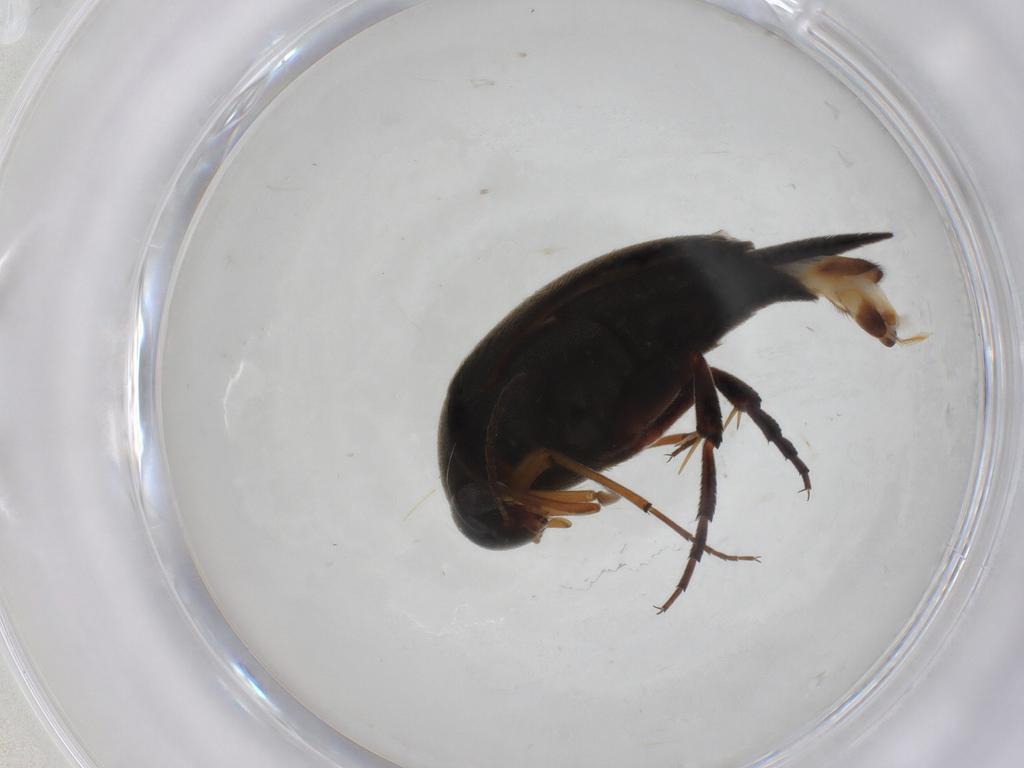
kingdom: Animalia
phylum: Arthropoda
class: Insecta
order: Coleoptera
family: Mordellidae
